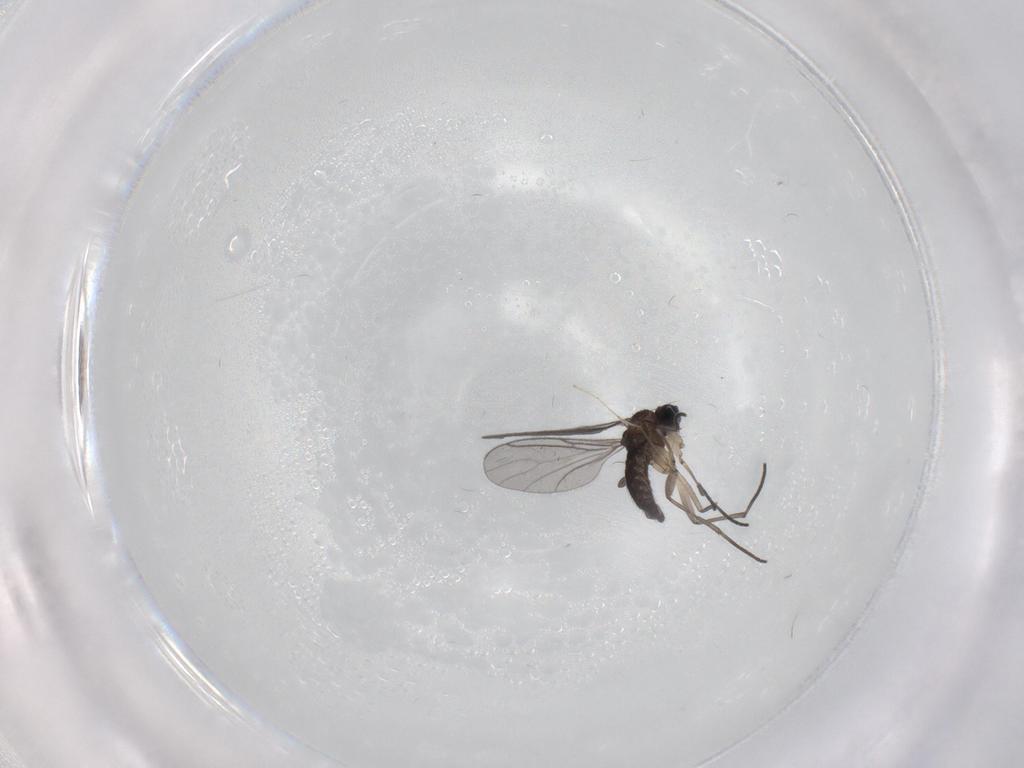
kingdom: Animalia
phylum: Arthropoda
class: Insecta
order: Diptera
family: Sciaridae
